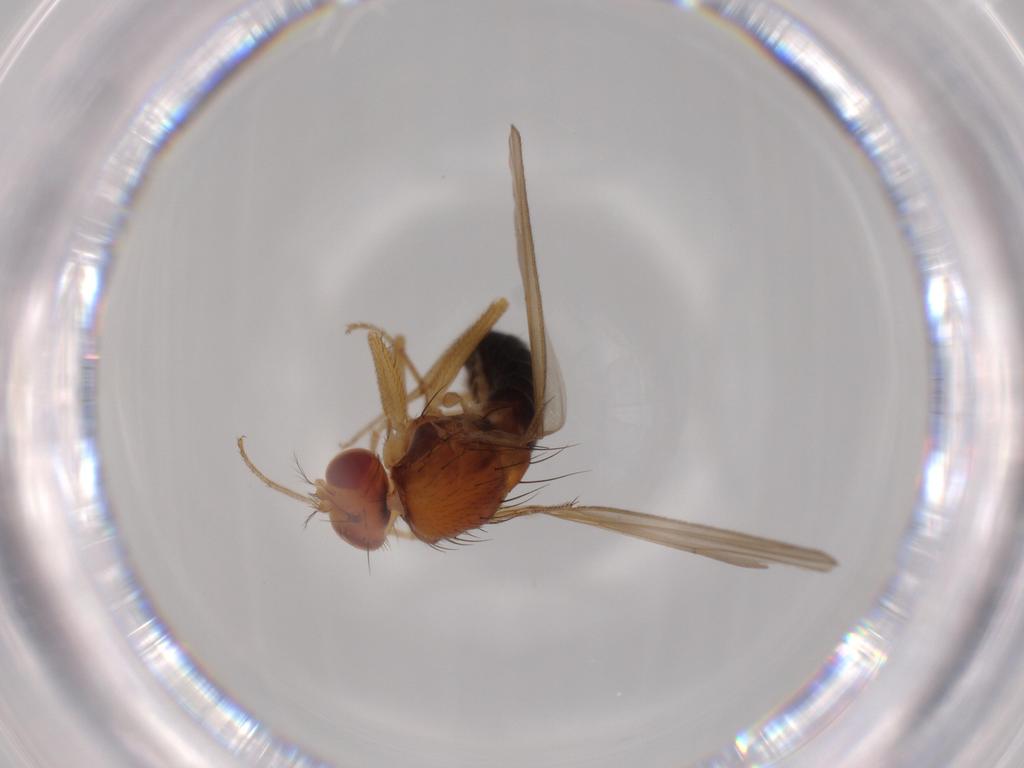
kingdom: Animalia
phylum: Arthropoda
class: Insecta
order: Diptera
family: Drosophilidae
